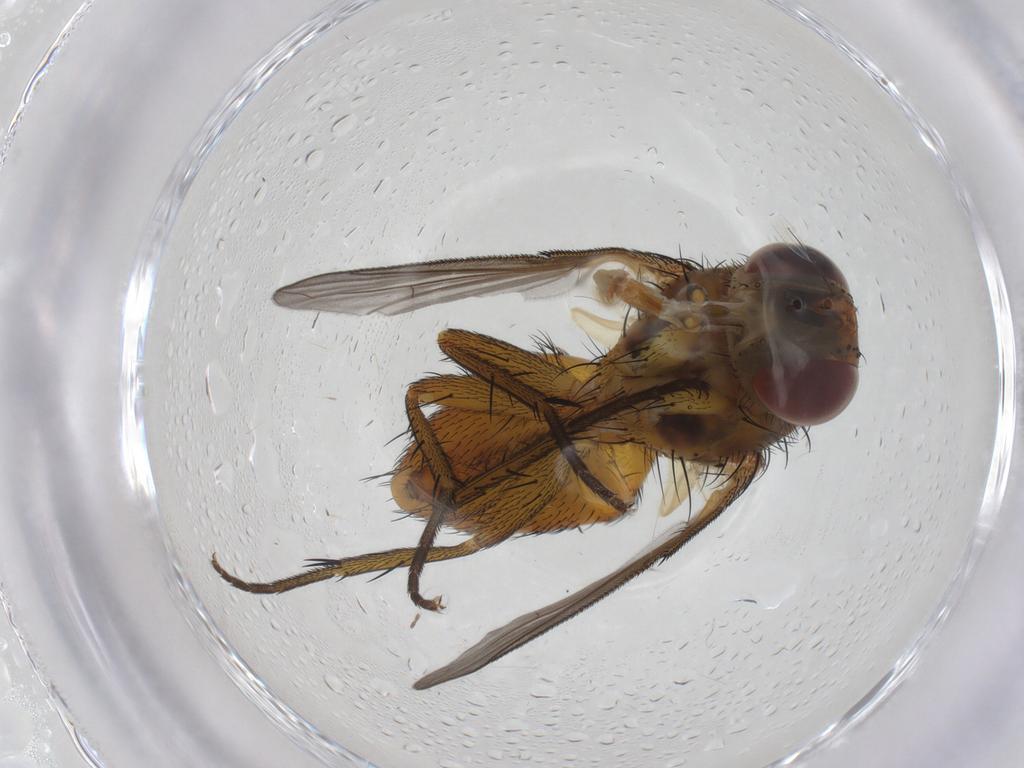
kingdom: Animalia
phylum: Arthropoda
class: Insecta
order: Diptera
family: Tachinidae
